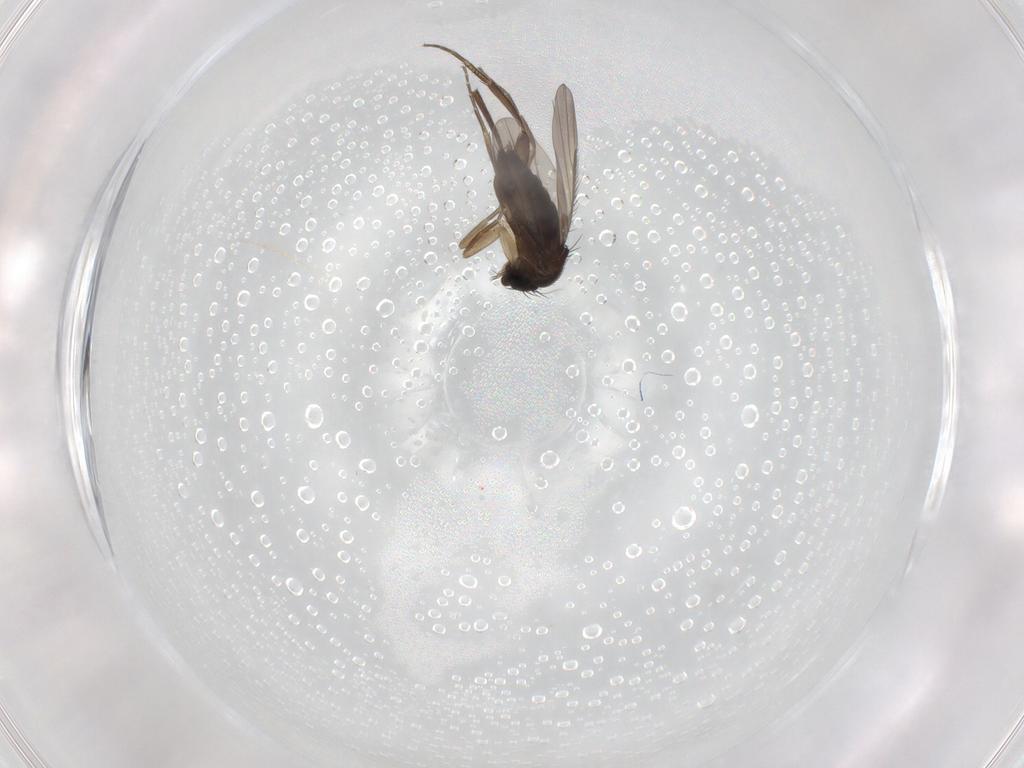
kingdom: Animalia
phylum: Arthropoda
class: Insecta
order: Diptera
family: Phoridae
